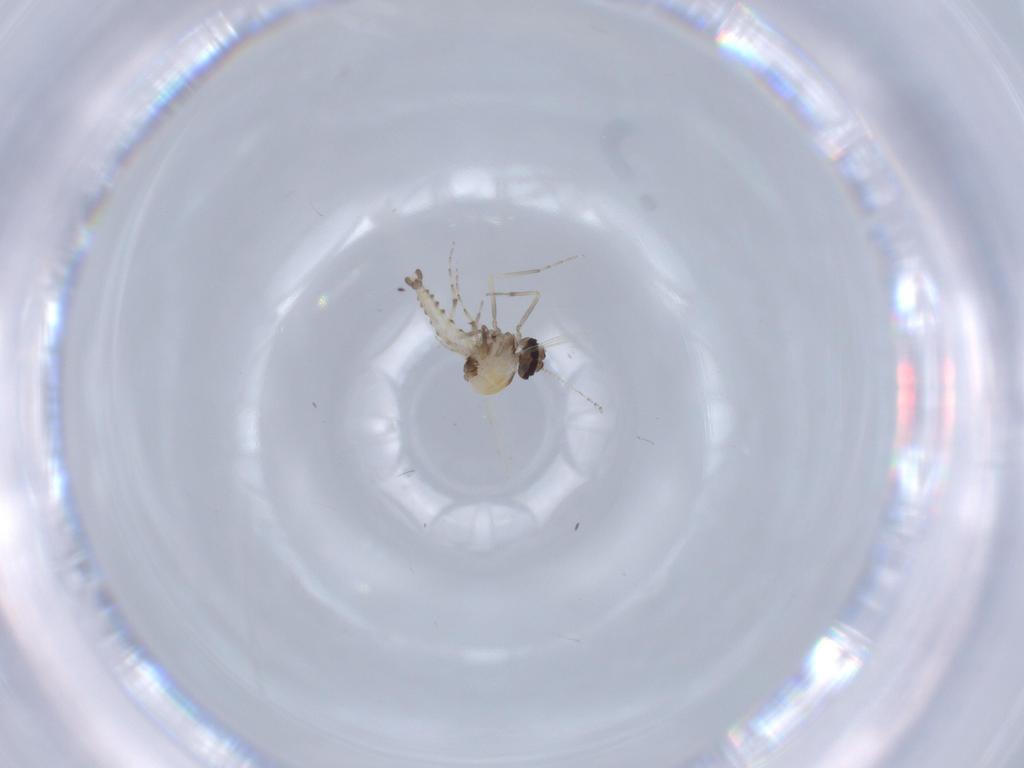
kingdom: Animalia
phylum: Arthropoda
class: Insecta
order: Diptera
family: Ceratopogonidae
